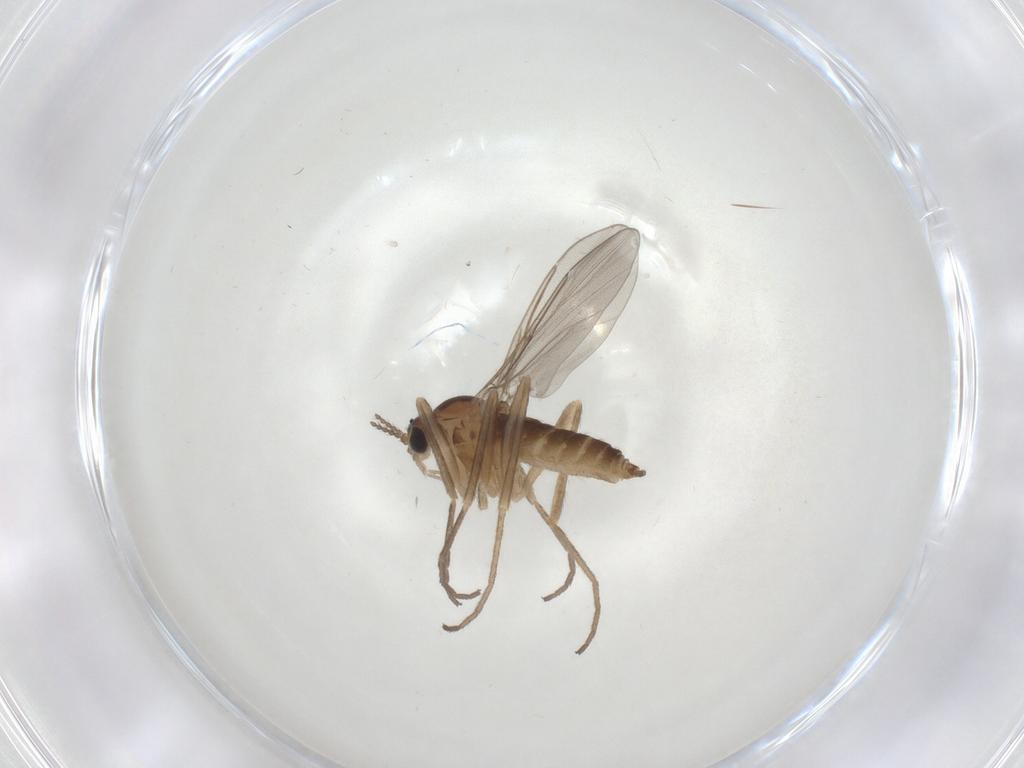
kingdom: Animalia
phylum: Arthropoda
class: Insecta
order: Diptera
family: Cecidomyiidae
